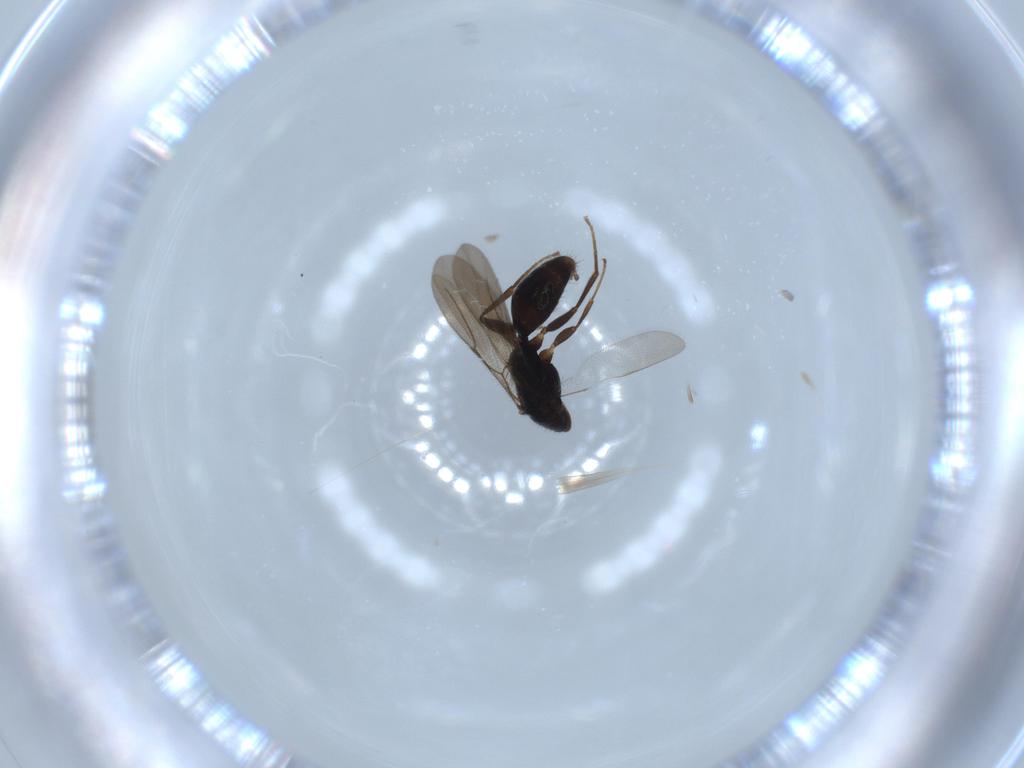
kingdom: Animalia
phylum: Arthropoda
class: Insecta
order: Hymenoptera
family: Bethylidae
